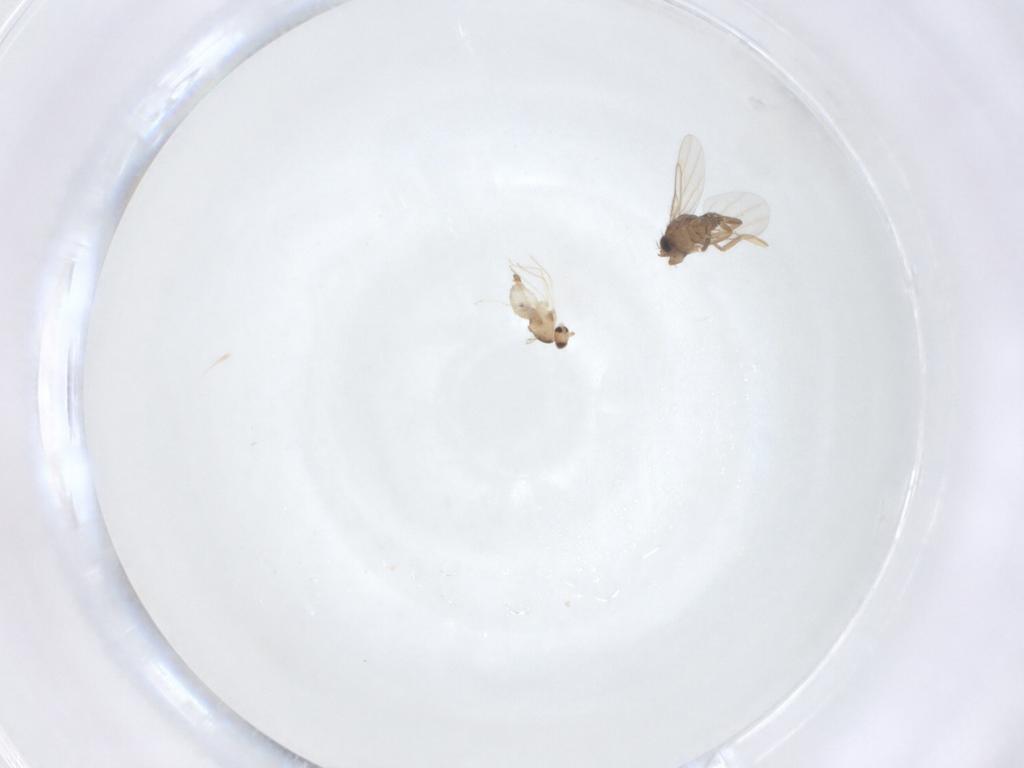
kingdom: Animalia
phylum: Arthropoda
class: Insecta
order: Diptera
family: Phoridae
